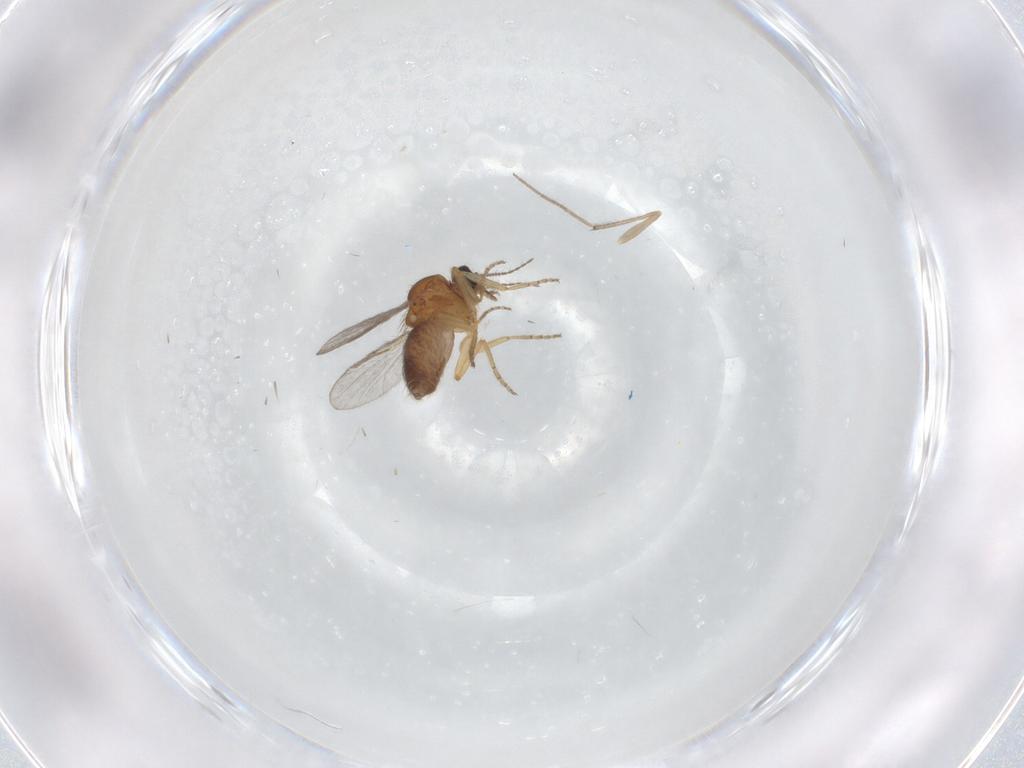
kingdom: Animalia
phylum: Arthropoda
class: Insecta
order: Diptera
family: Ceratopogonidae
